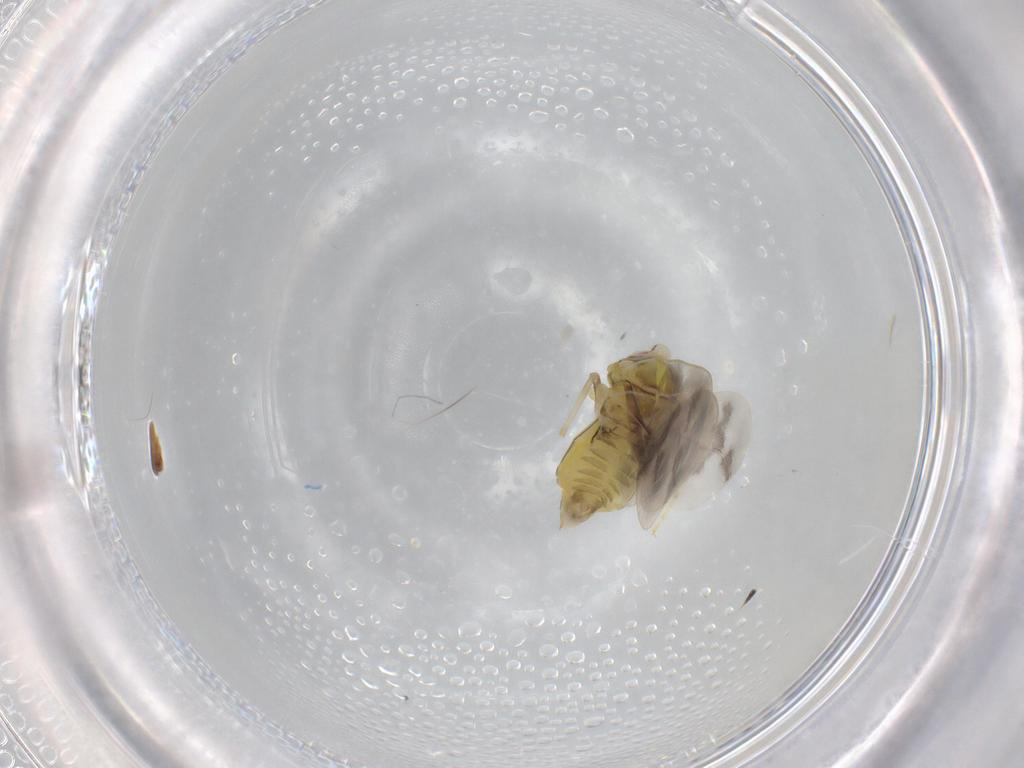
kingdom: Animalia
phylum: Arthropoda
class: Insecta
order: Hemiptera
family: Aleyrodidae
